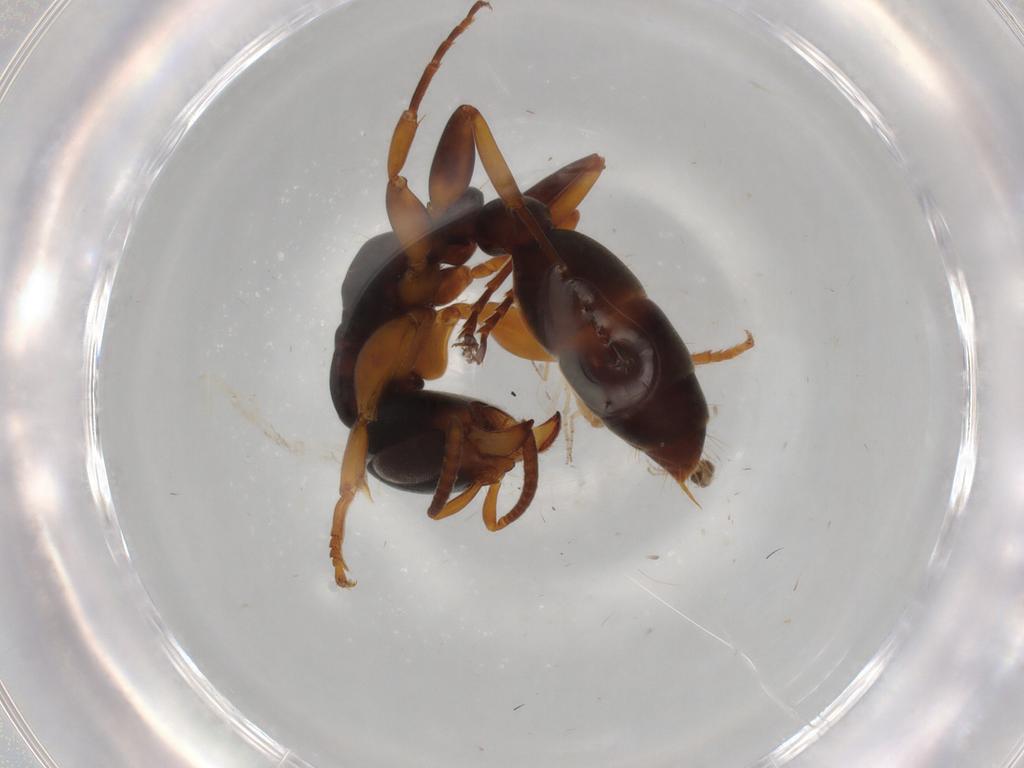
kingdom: Animalia
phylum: Arthropoda
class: Insecta
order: Hymenoptera
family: Formicidae
